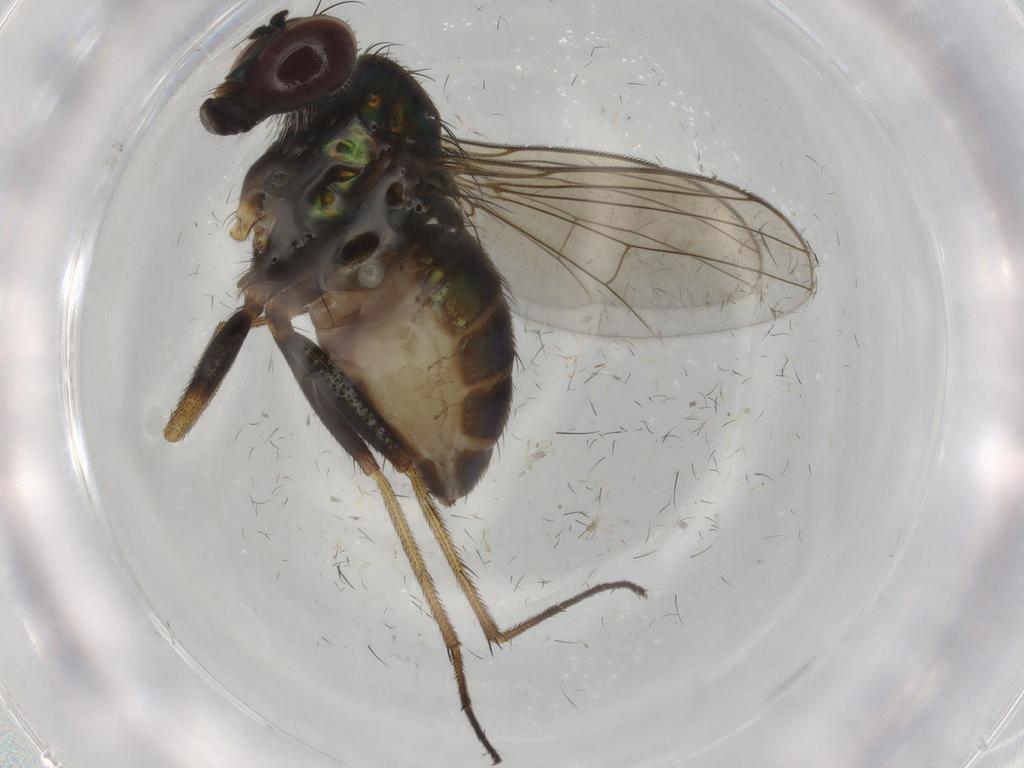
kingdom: Animalia
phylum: Arthropoda
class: Insecta
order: Diptera
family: Dolichopodidae
